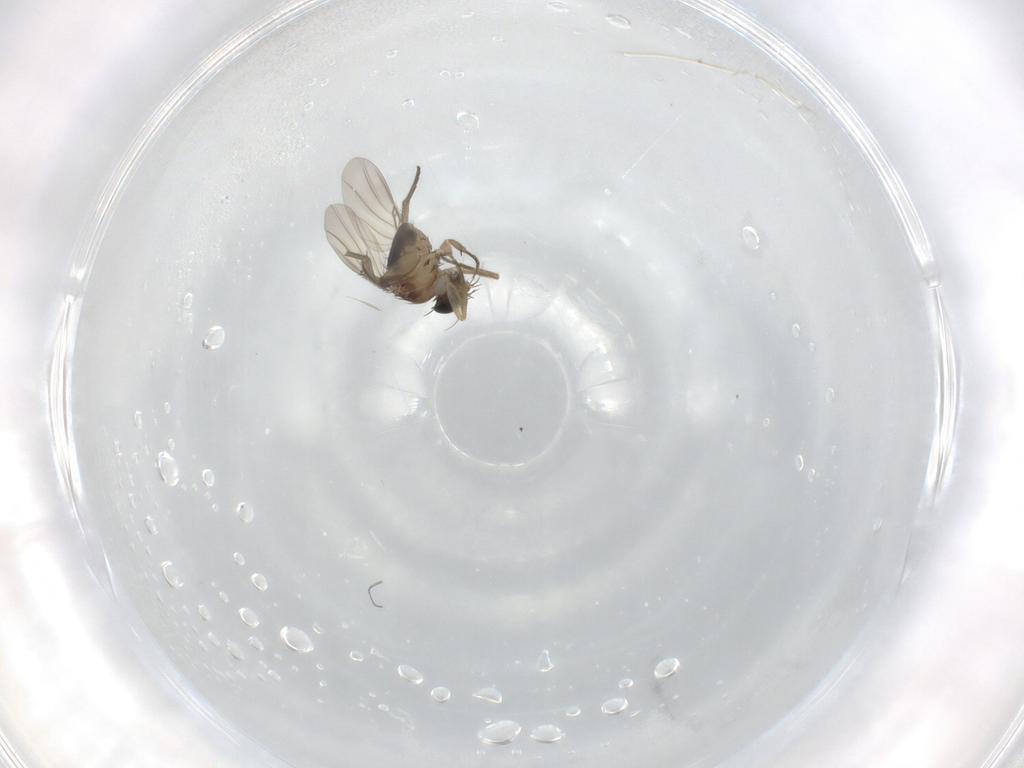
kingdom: Animalia
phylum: Arthropoda
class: Insecta
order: Diptera
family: Phoridae
